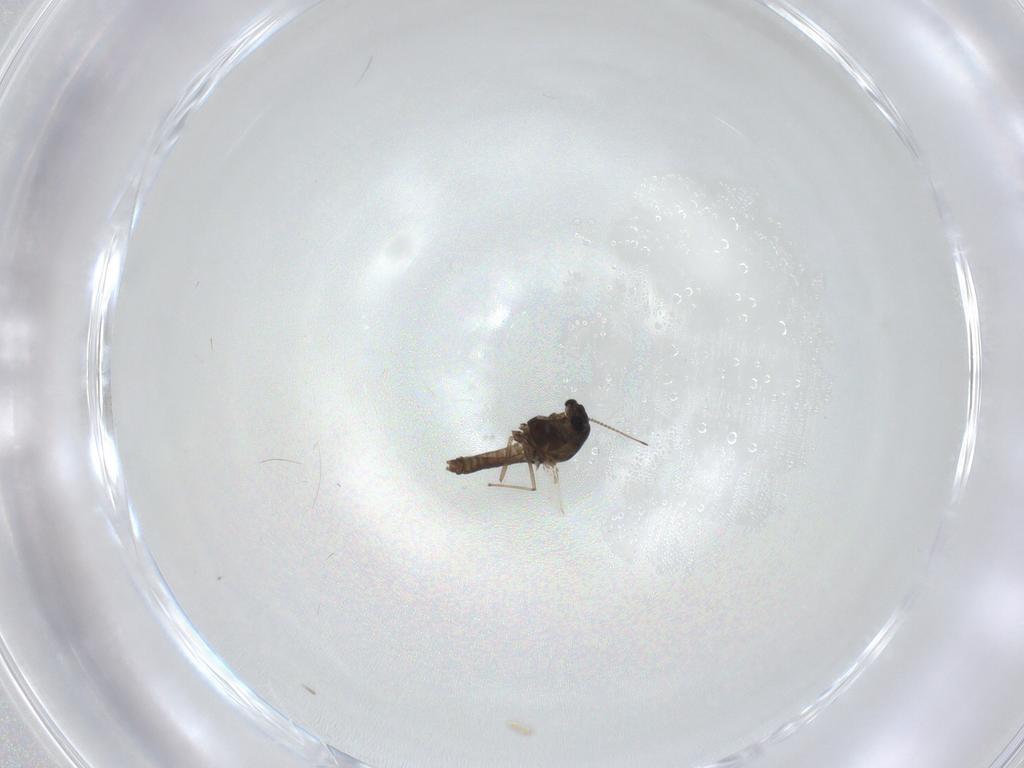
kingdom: Animalia
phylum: Arthropoda
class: Insecta
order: Diptera
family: Chironomidae
